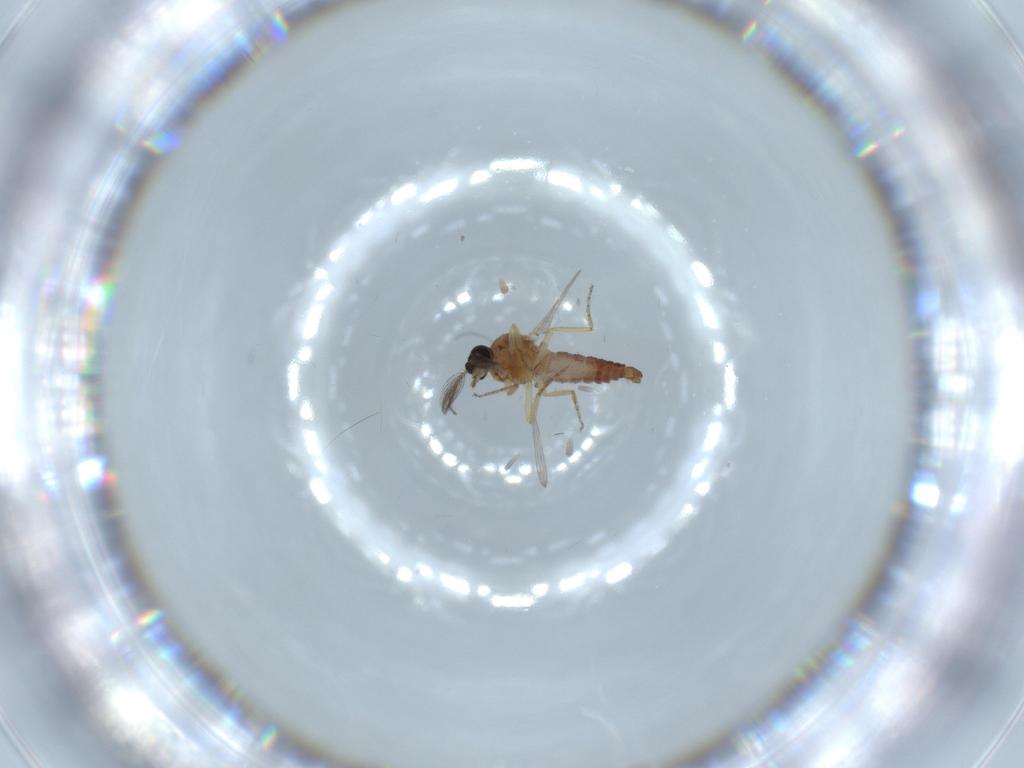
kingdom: Animalia
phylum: Arthropoda
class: Insecta
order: Diptera
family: Ceratopogonidae
